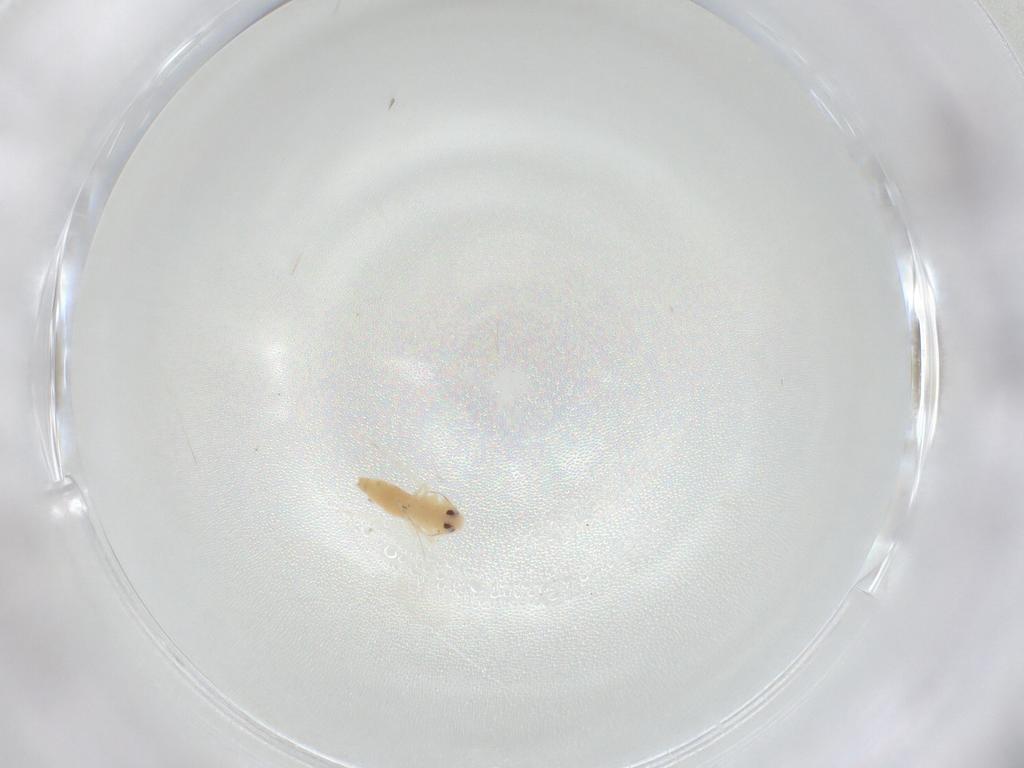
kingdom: Animalia
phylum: Arthropoda
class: Insecta
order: Hemiptera
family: Aleyrodidae
